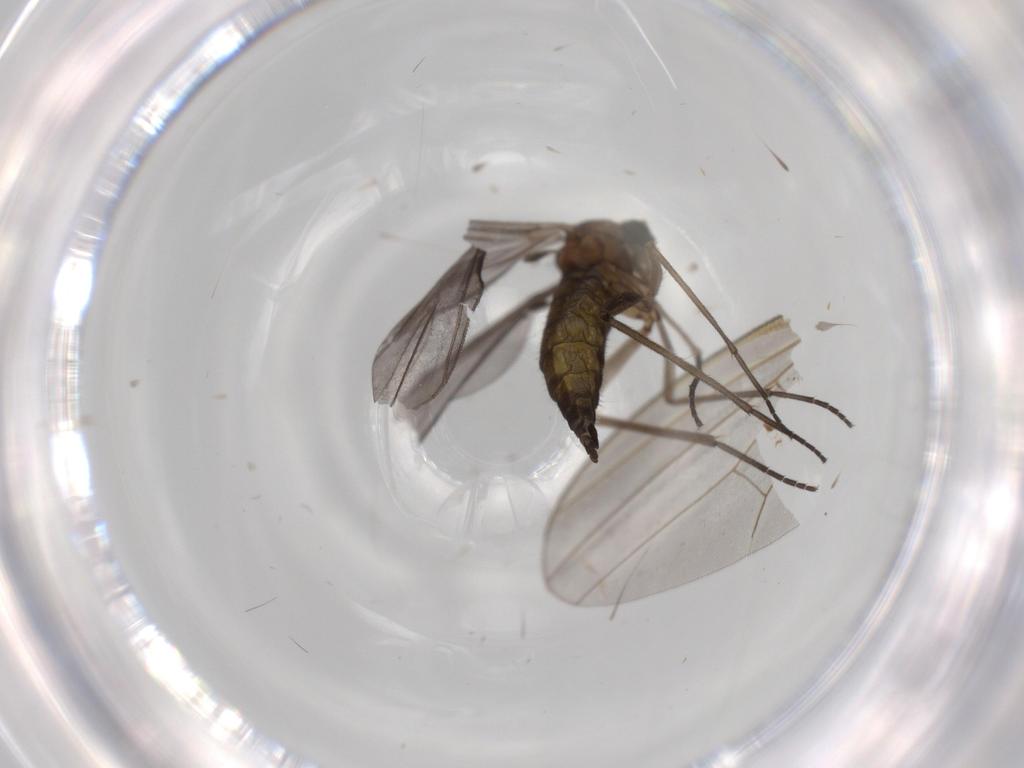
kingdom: Animalia
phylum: Arthropoda
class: Insecta
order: Diptera
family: Sciaridae
